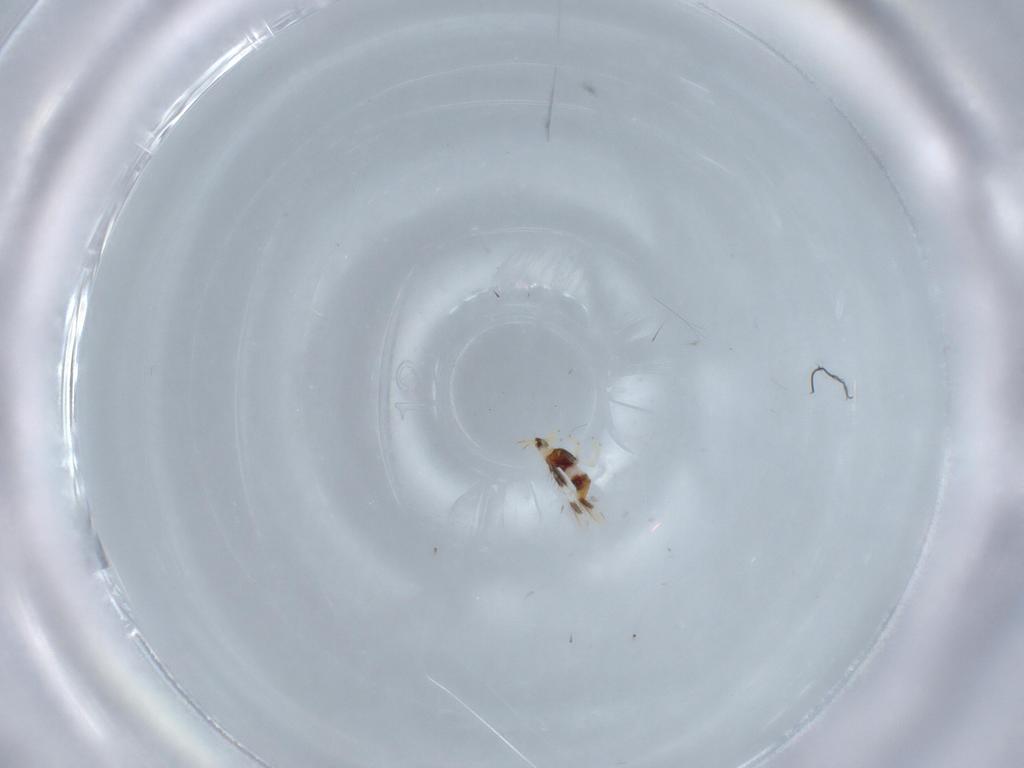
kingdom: Animalia
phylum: Arthropoda
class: Insecta
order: Thysanoptera
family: Thripidae
